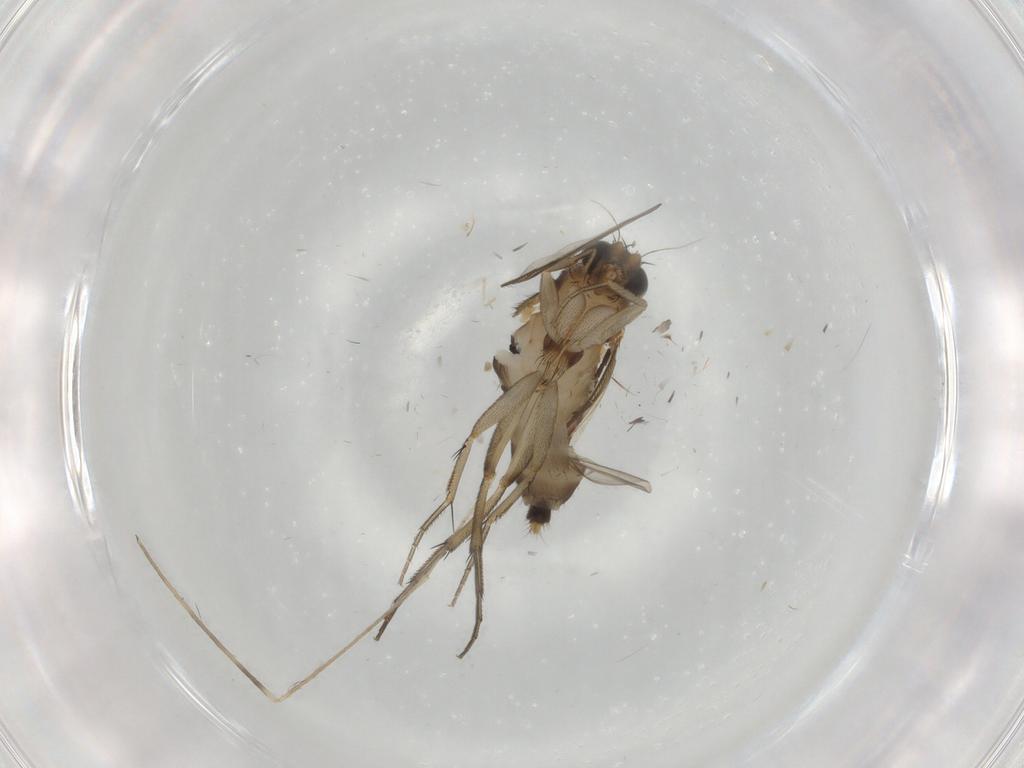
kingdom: Animalia
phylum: Arthropoda
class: Insecta
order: Diptera
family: Phoridae
